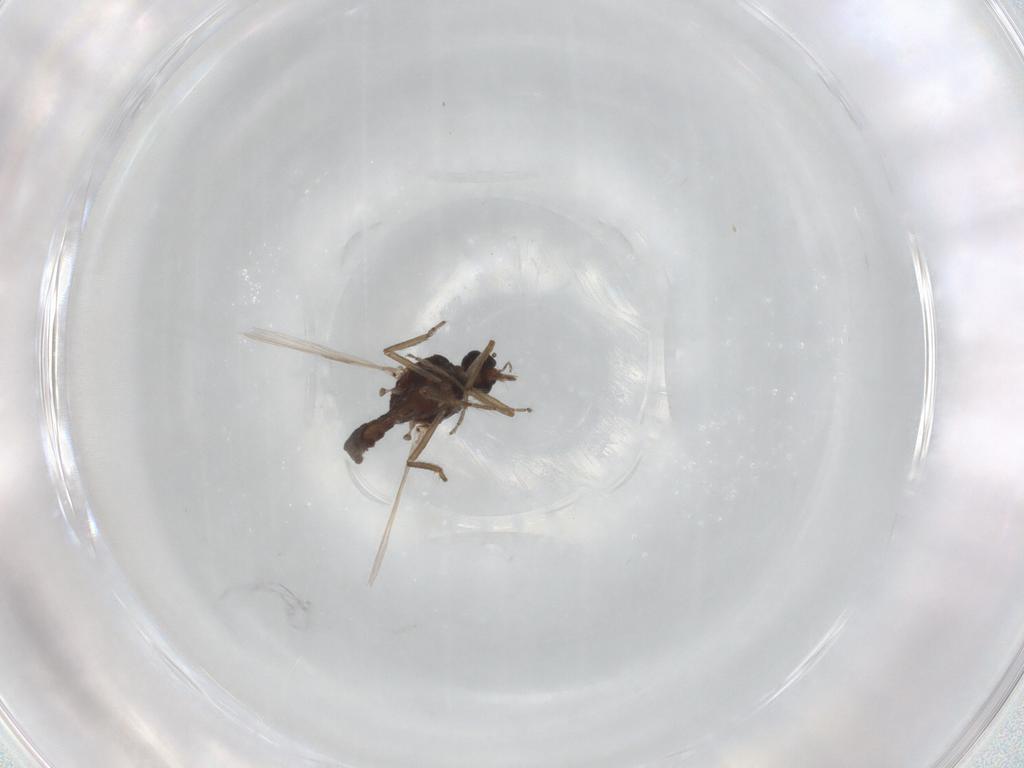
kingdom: Animalia
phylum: Arthropoda
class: Insecta
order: Diptera
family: Ceratopogonidae
